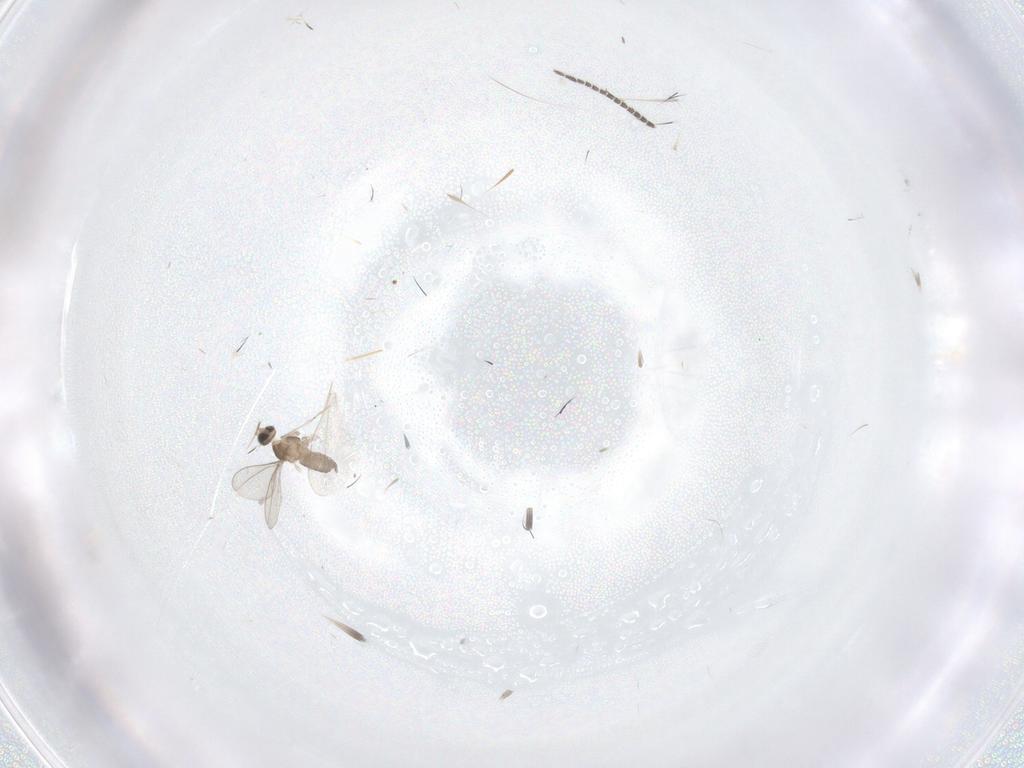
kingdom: Animalia
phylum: Arthropoda
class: Insecta
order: Diptera
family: Sciaridae
